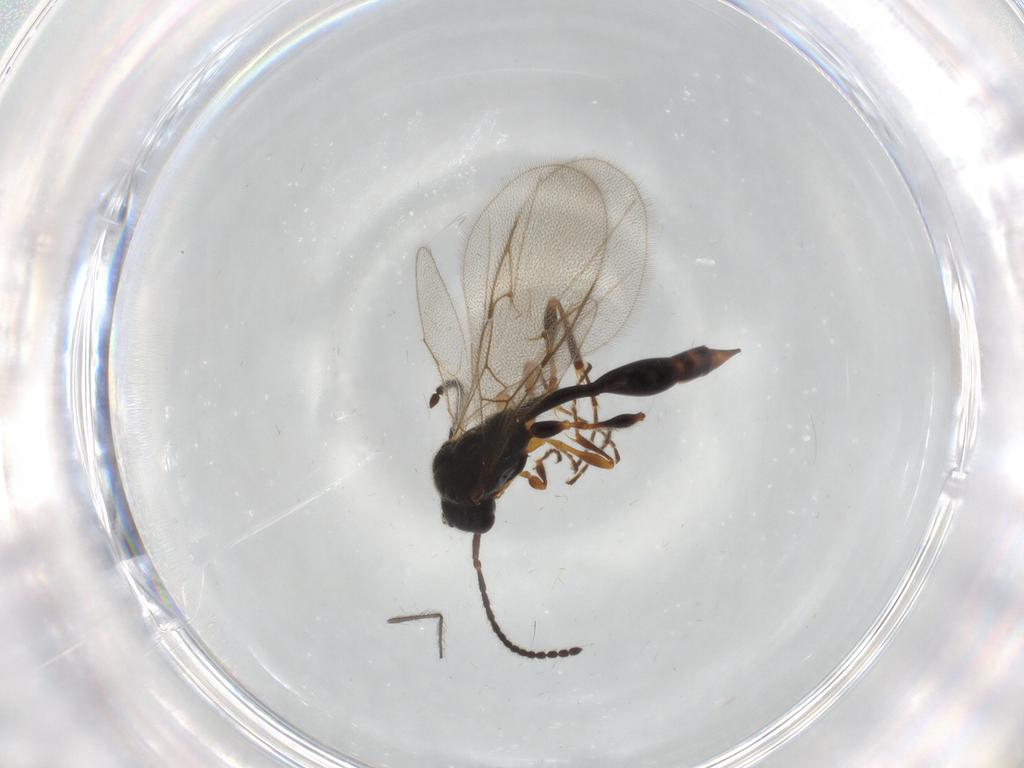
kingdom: Animalia
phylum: Arthropoda
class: Insecta
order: Hymenoptera
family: Diapriidae
